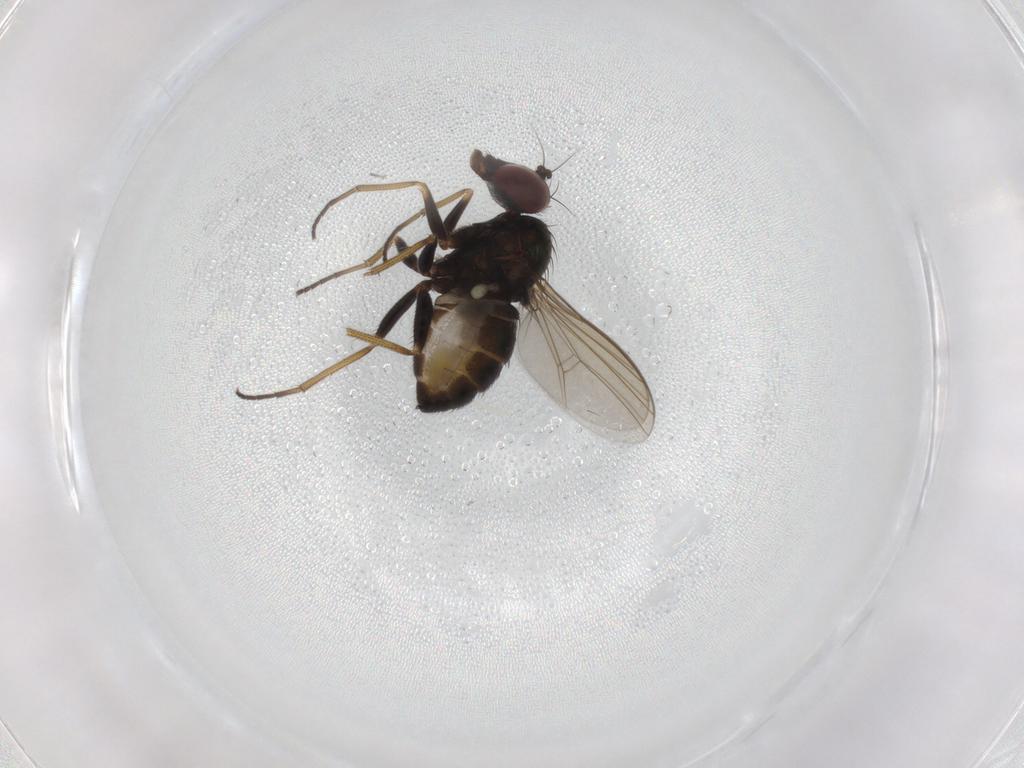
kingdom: Animalia
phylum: Arthropoda
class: Insecta
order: Diptera
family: Dolichopodidae
